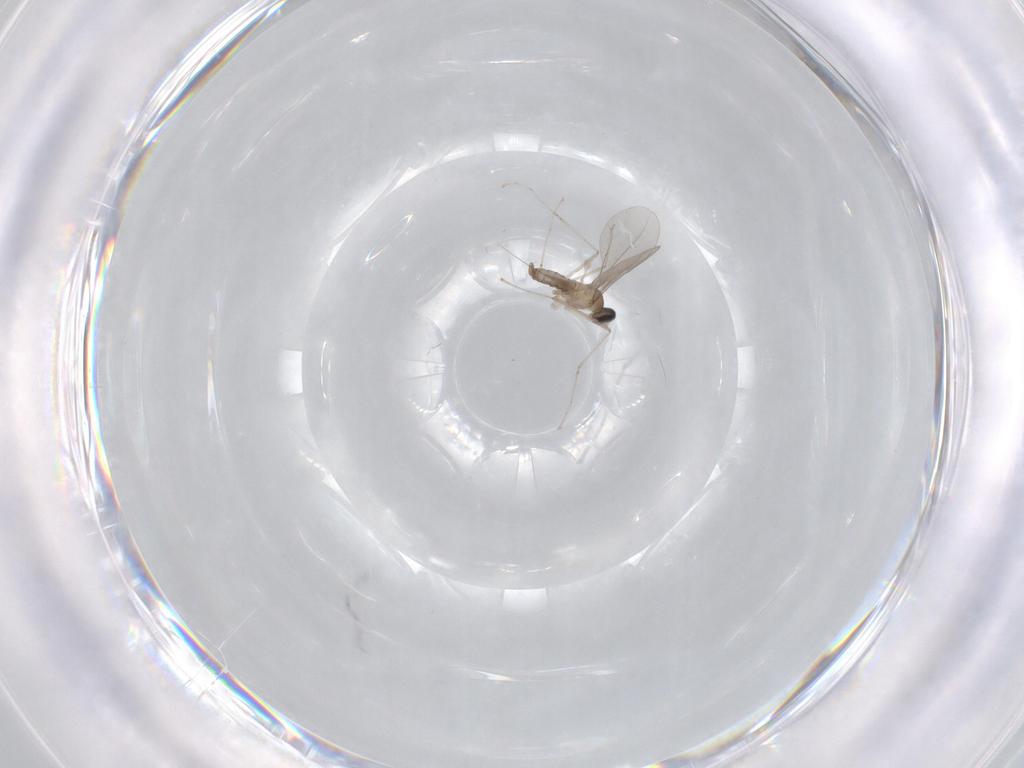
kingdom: Animalia
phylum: Arthropoda
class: Insecta
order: Diptera
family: Cecidomyiidae
